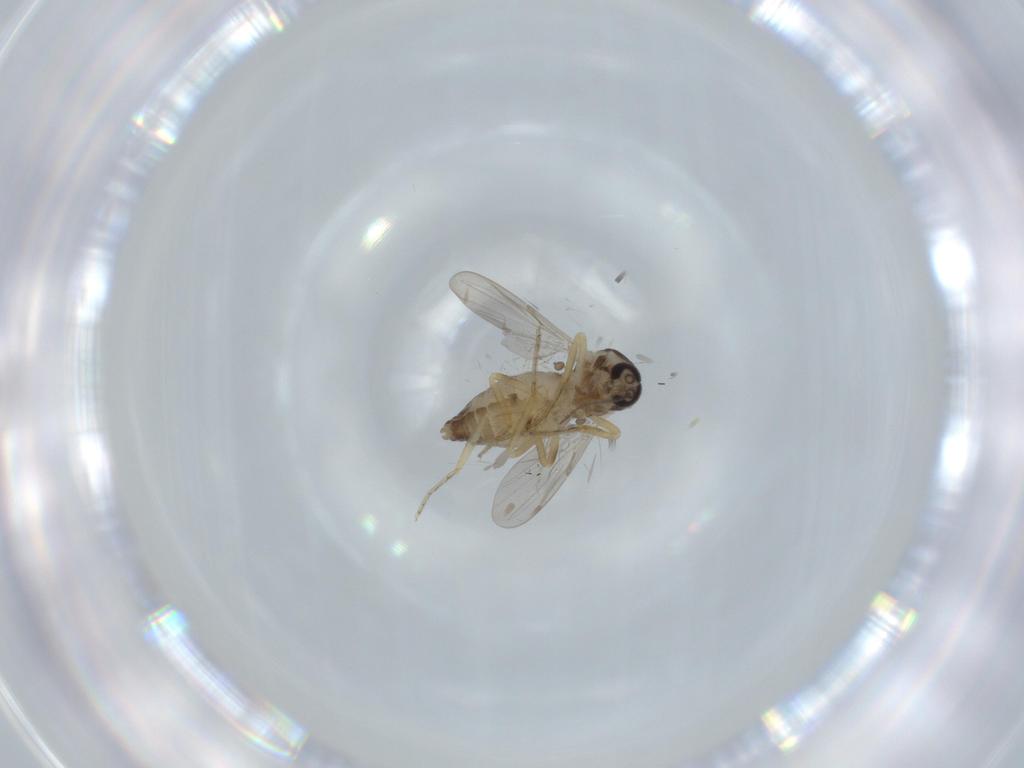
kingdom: Animalia
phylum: Arthropoda
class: Insecta
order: Diptera
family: Ceratopogonidae
